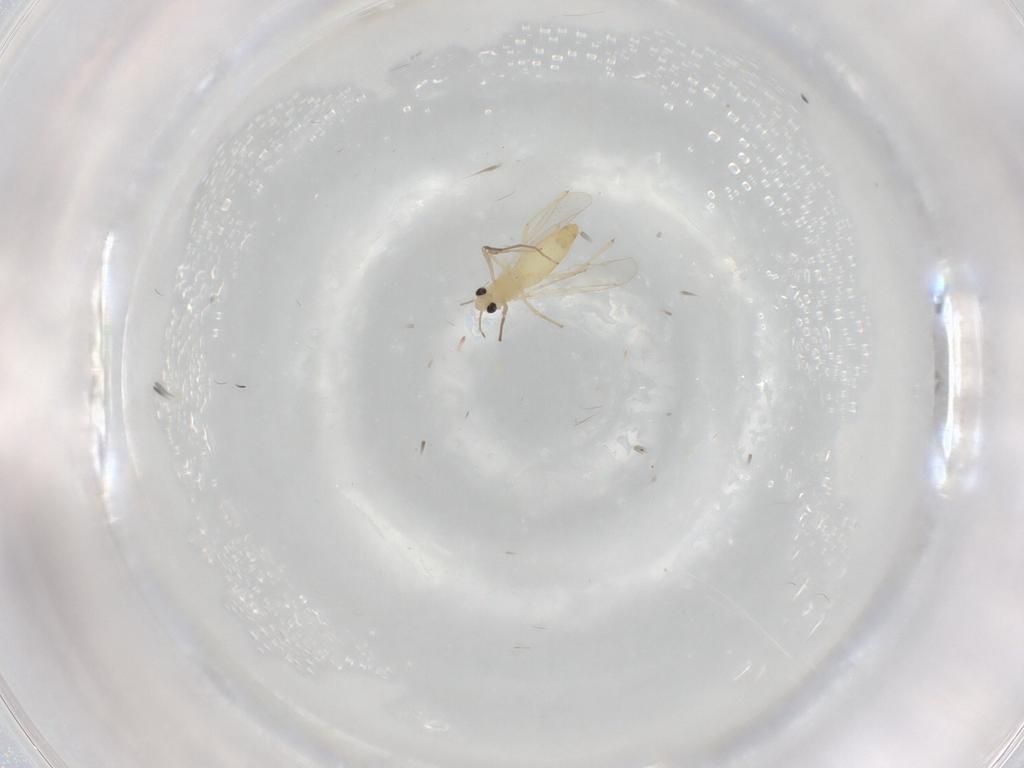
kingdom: Animalia
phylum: Arthropoda
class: Insecta
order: Diptera
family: Chironomidae
